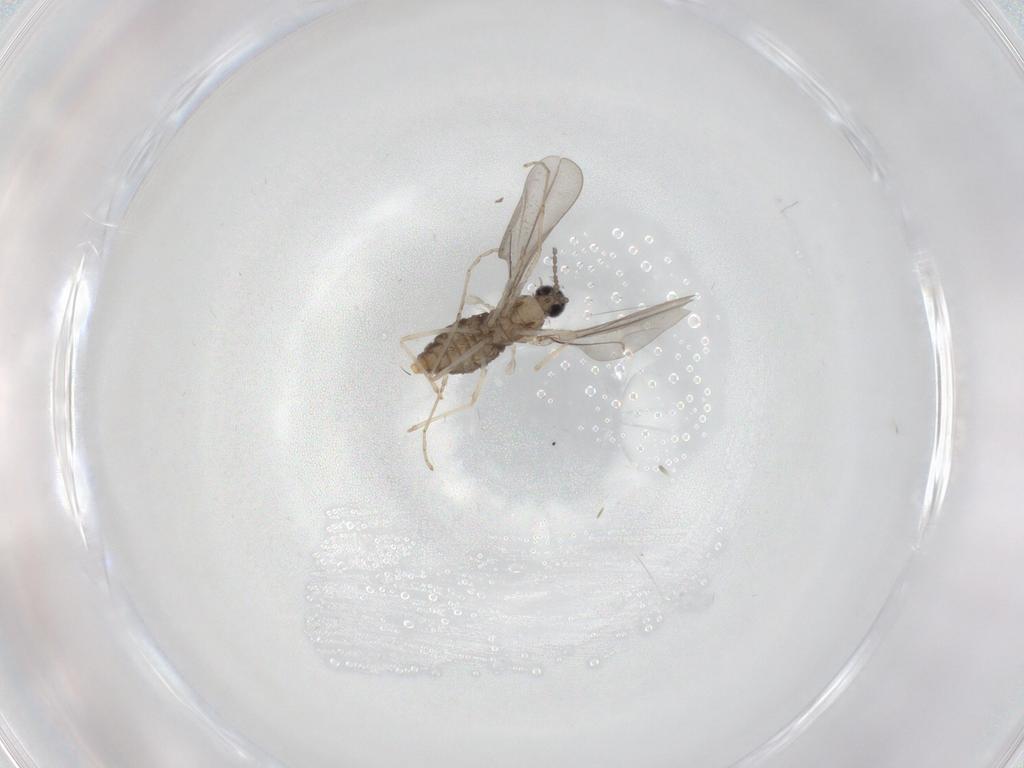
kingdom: Animalia
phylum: Arthropoda
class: Insecta
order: Diptera
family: Cecidomyiidae
